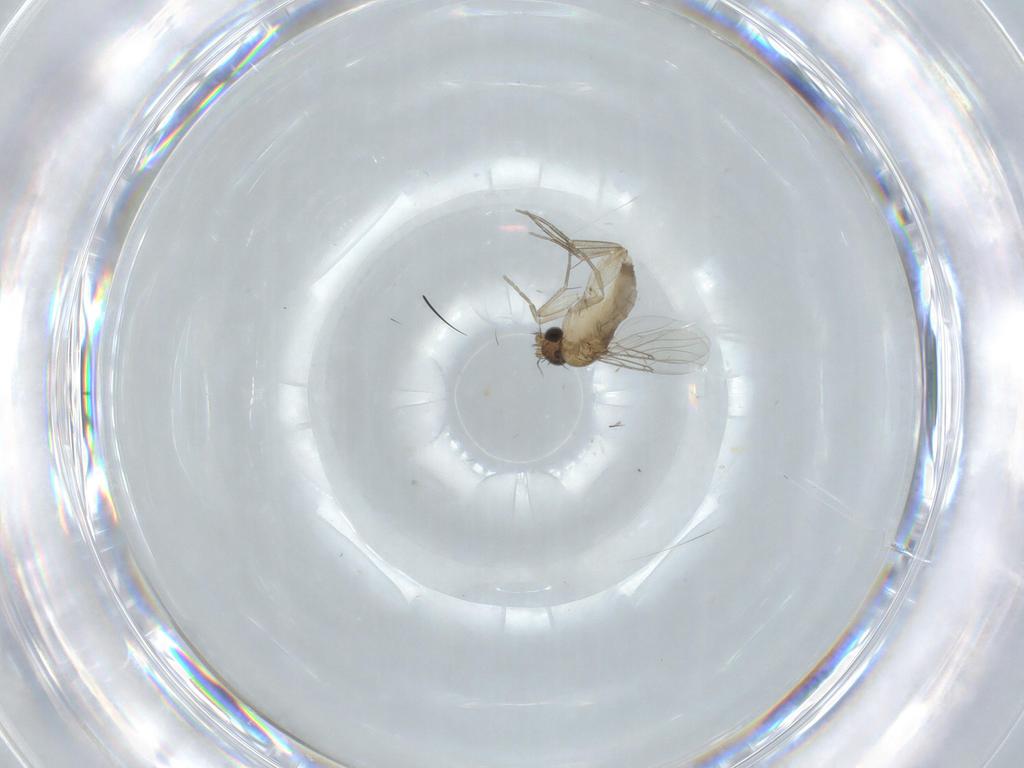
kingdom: Animalia
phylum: Arthropoda
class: Insecta
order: Diptera
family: Phoridae
